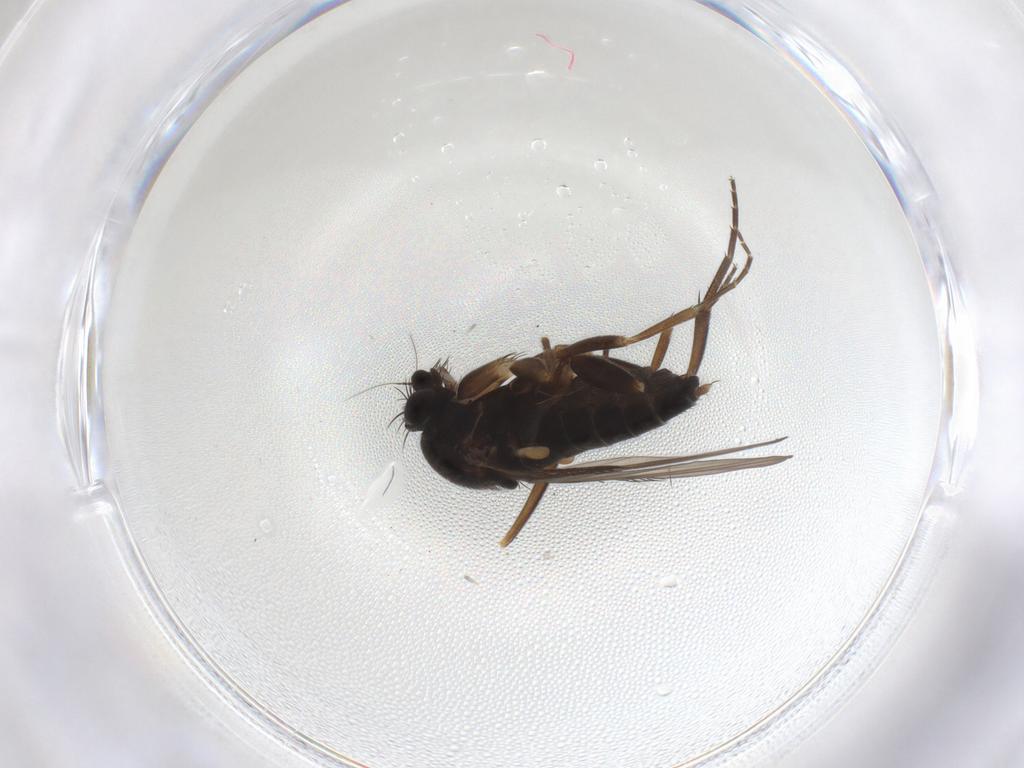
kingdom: Animalia
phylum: Arthropoda
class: Insecta
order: Diptera
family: Phoridae
